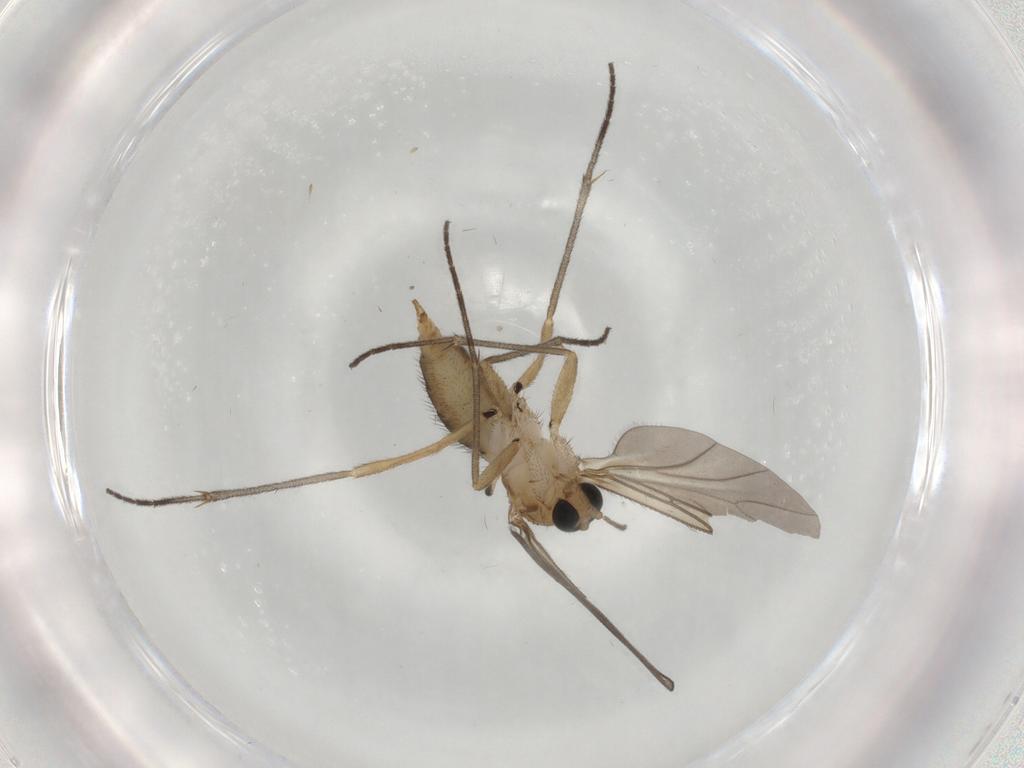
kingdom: Animalia
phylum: Arthropoda
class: Insecta
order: Diptera
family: Sciaridae
